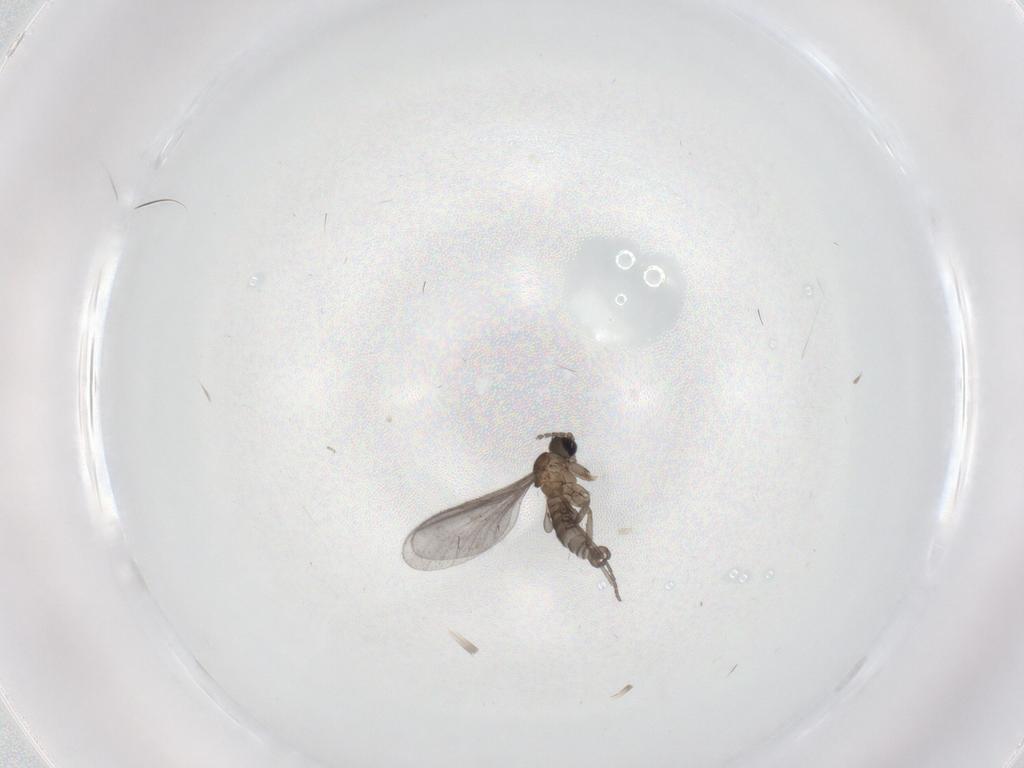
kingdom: Animalia
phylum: Arthropoda
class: Insecta
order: Diptera
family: Sciaridae
